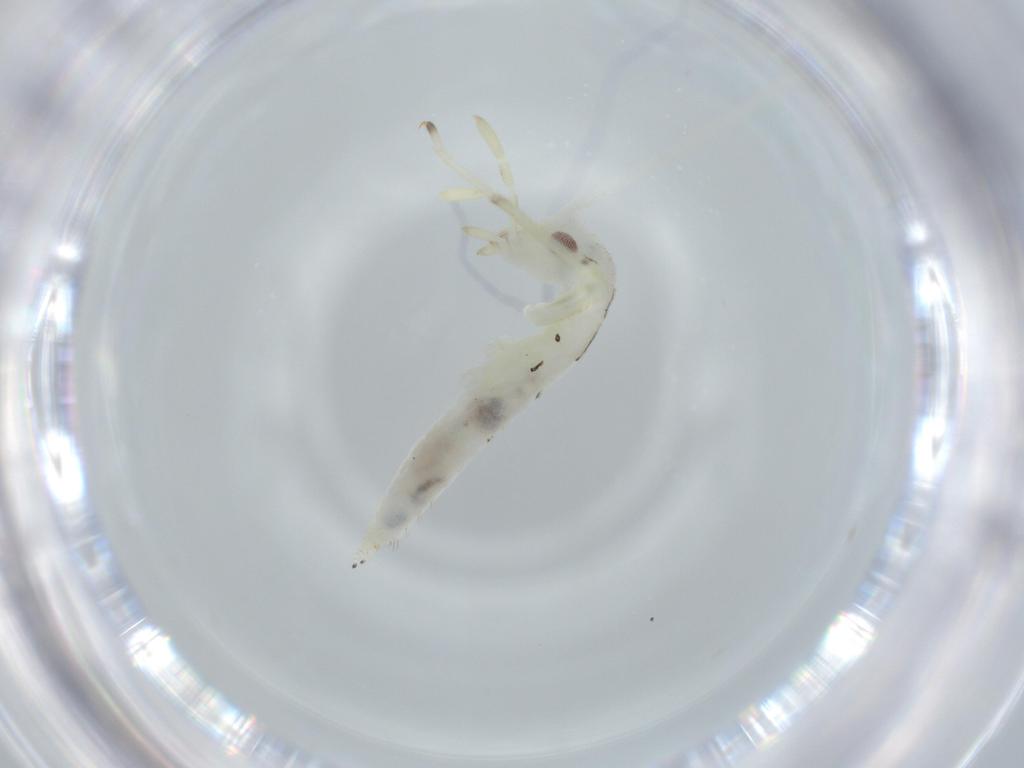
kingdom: Animalia
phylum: Arthropoda
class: Insecta
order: Orthoptera
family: Oecanthidae
